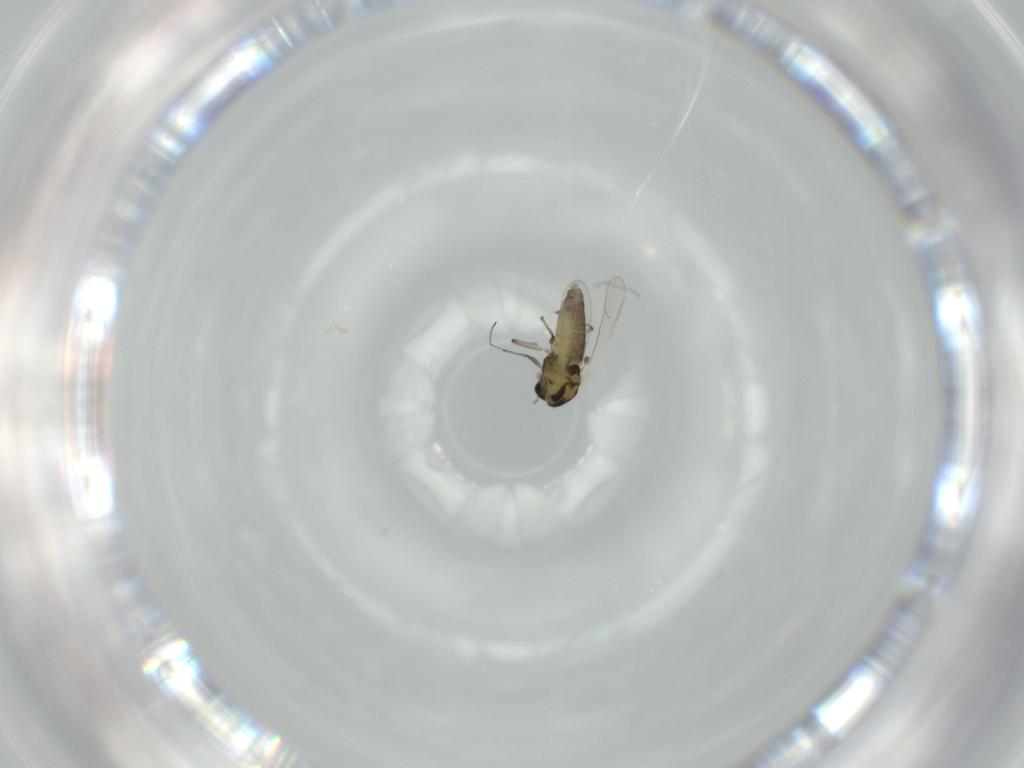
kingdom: Animalia
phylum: Arthropoda
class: Insecta
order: Diptera
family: Chironomidae
